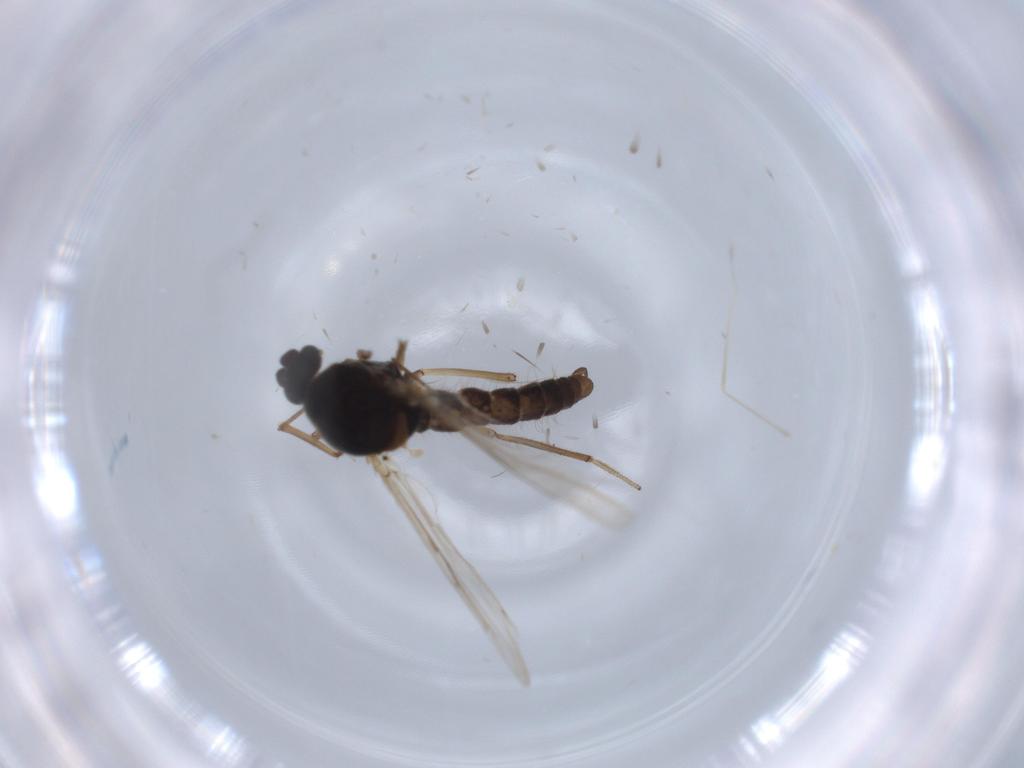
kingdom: Animalia
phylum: Arthropoda
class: Insecta
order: Diptera
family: Ceratopogonidae
